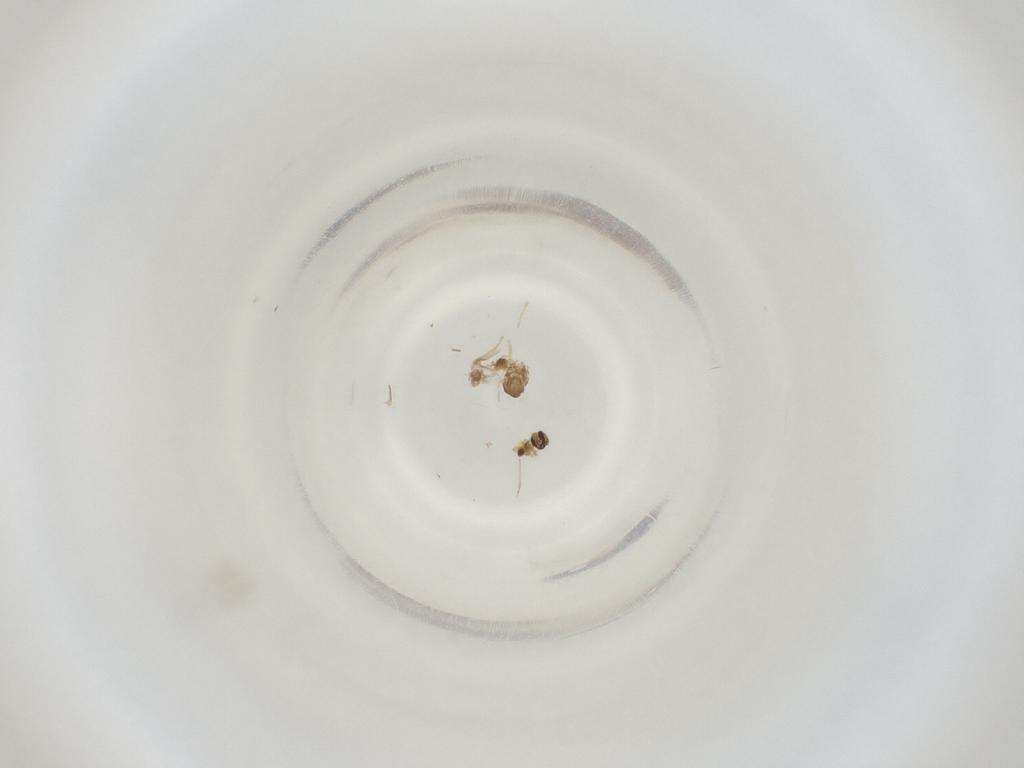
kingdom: Animalia
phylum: Arthropoda
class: Insecta
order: Diptera
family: Cecidomyiidae
